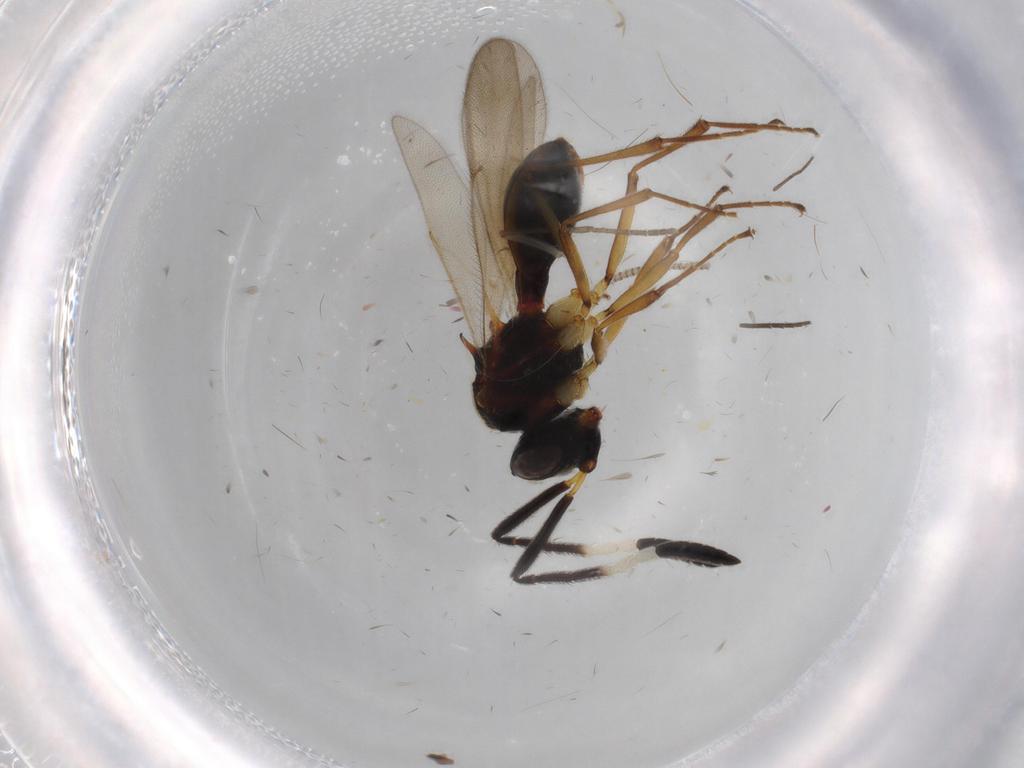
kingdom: Animalia
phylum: Arthropoda
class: Insecta
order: Hymenoptera
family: Scelionidae
